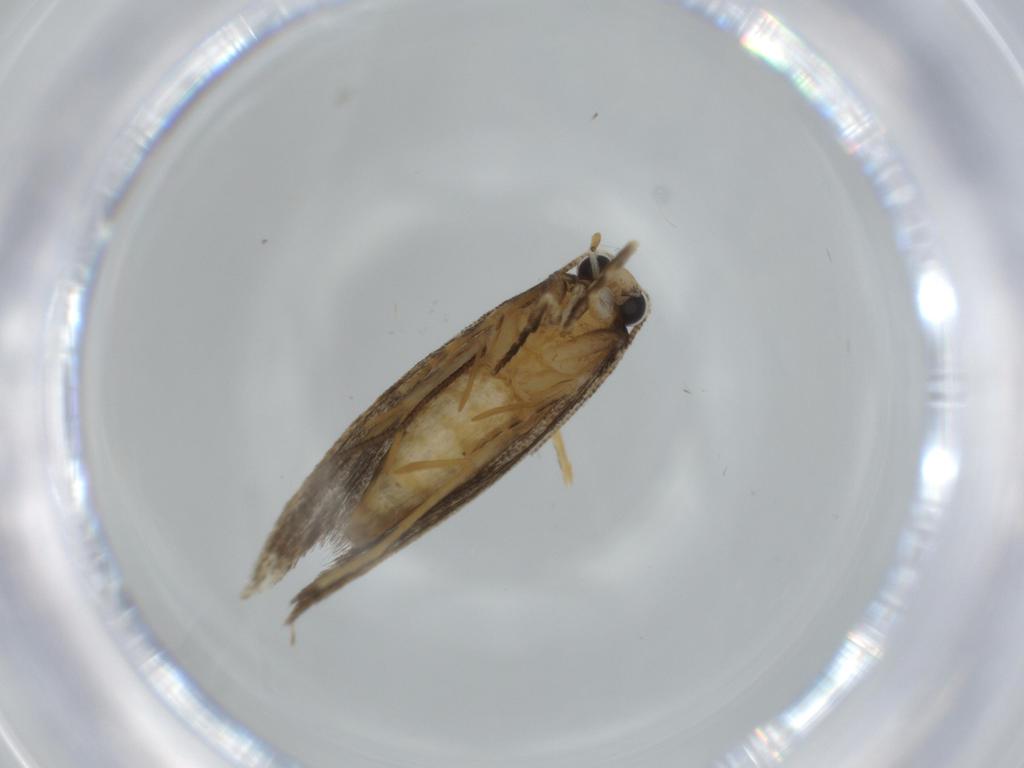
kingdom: Animalia
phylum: Arthropoda
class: Insecta
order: Lepidoptera
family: Tineidae
